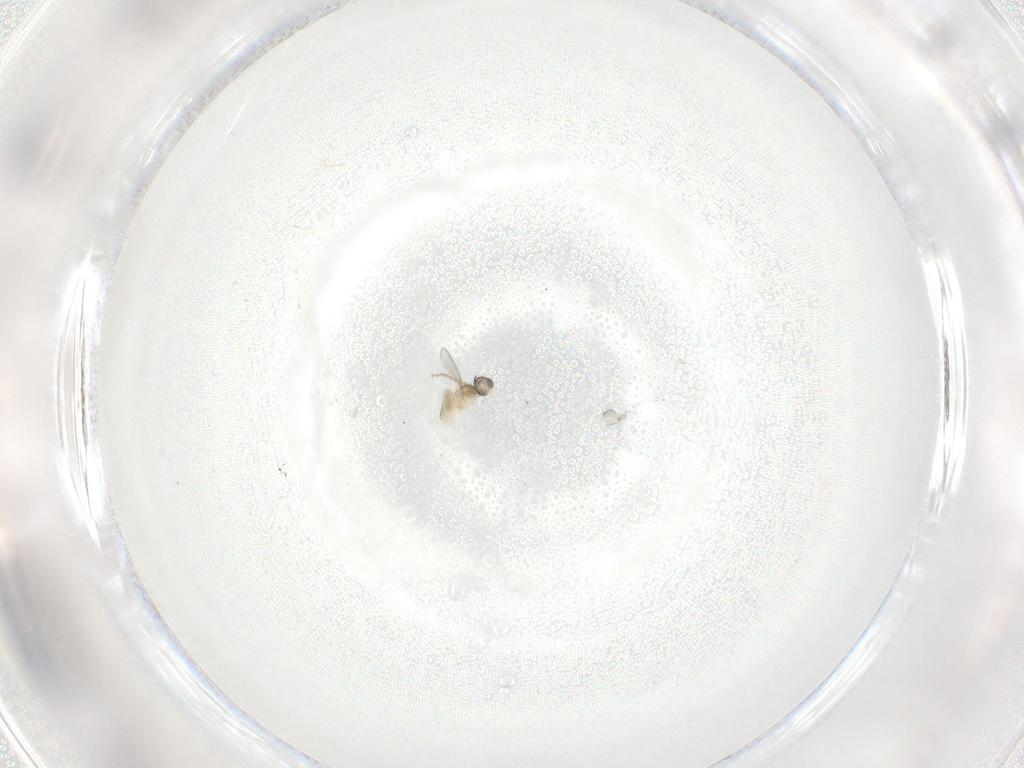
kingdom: Animalia
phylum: Arthropoda
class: Insecta
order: Diptera
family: Cecidomyiidae
